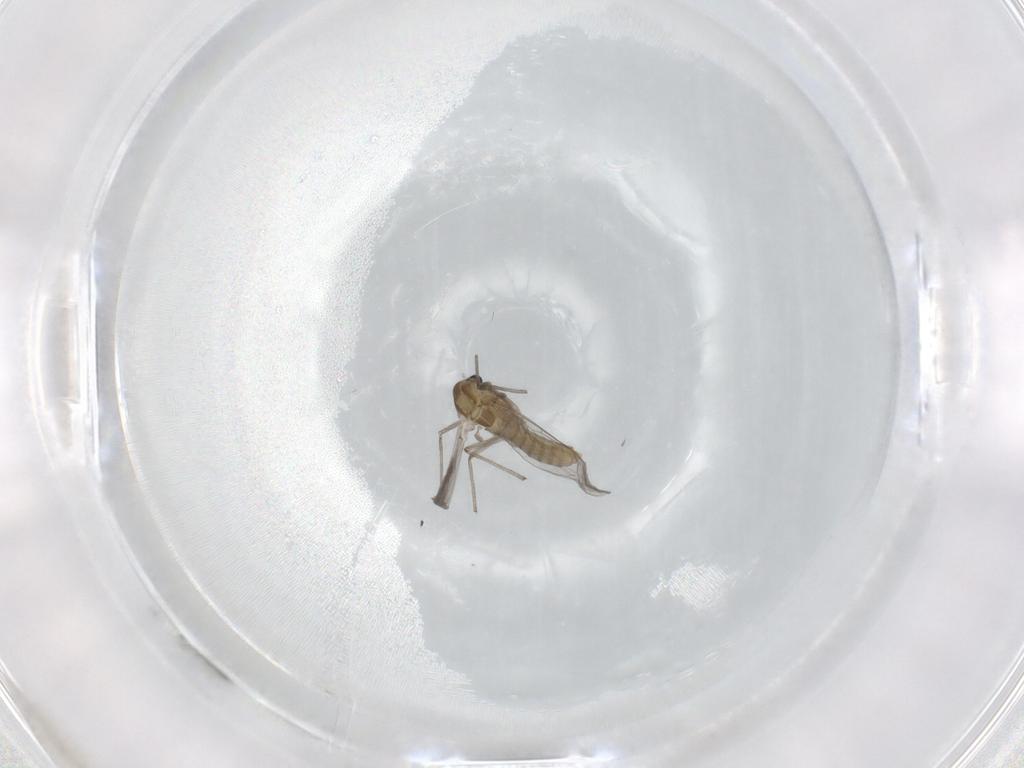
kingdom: Animalia
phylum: Arthropoda
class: Insecta
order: Diptera
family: Chironomidae
